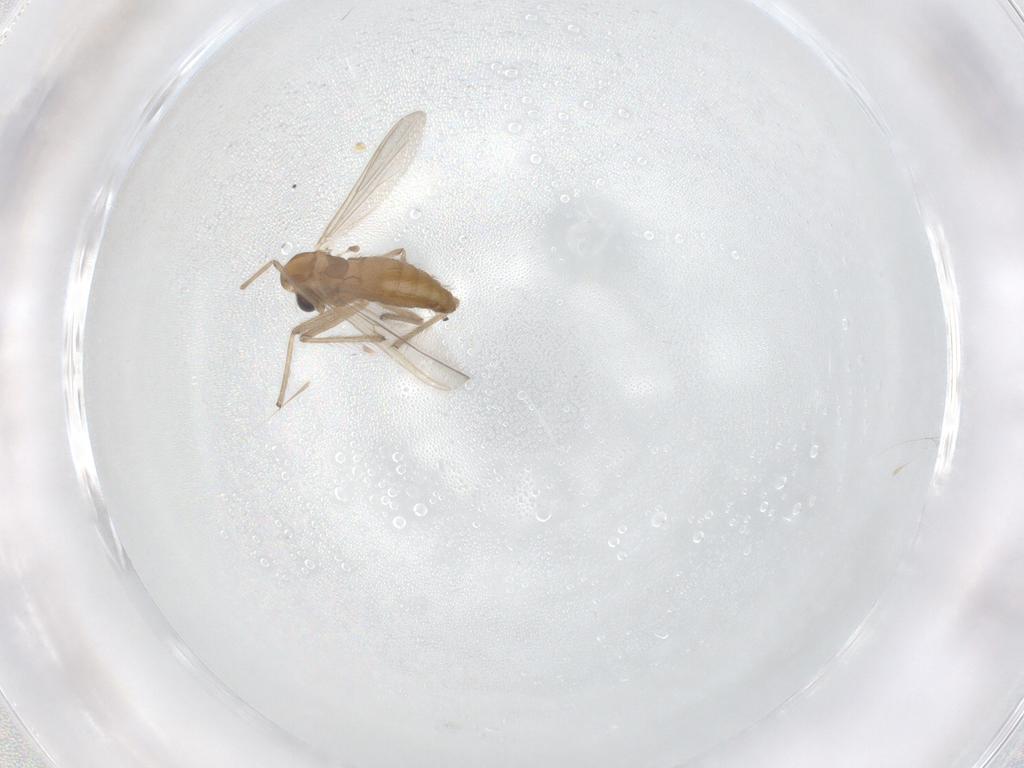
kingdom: Animalia
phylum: Arthropoda
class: Insecta
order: Diptera
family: Chironomidae
